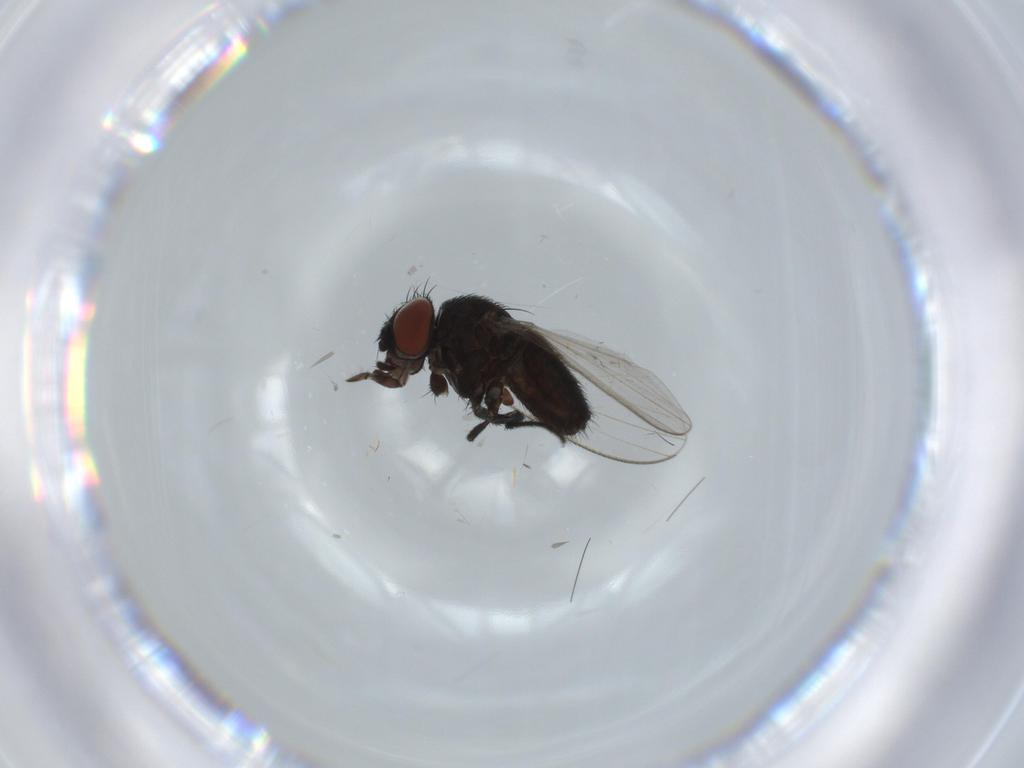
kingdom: Animalia
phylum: Arthropoda
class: Insecta
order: Diptera
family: Milichiidae
